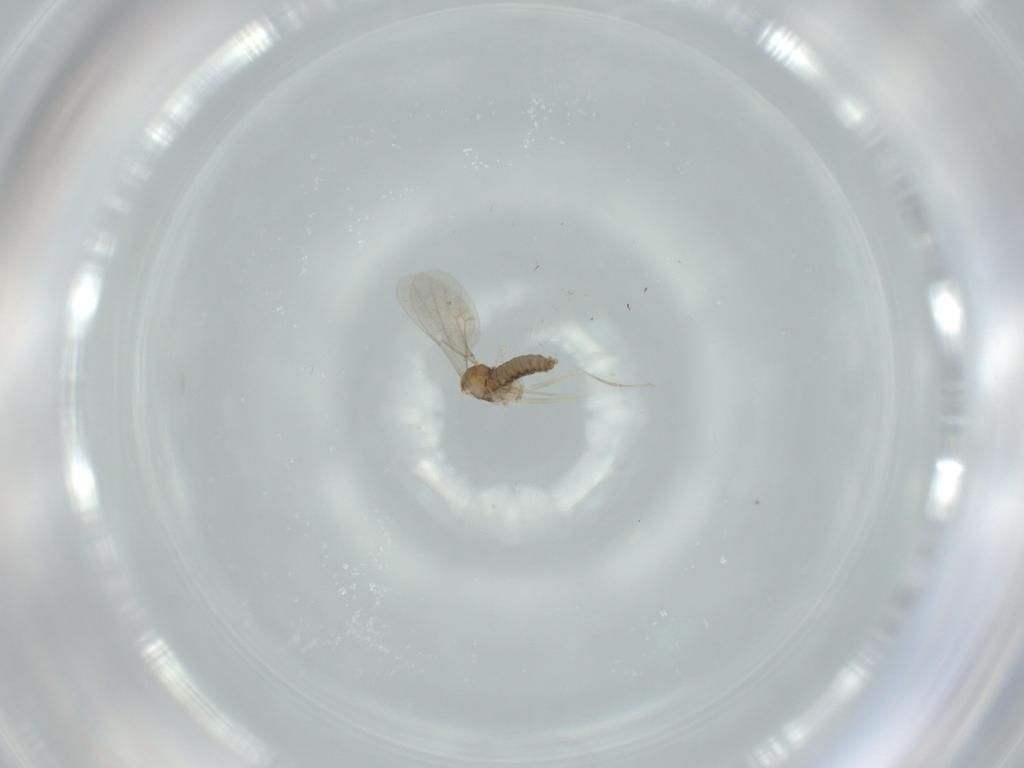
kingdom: Animalia
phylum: Arthropoda
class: Insecta
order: Diptera
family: Cecidomyiidae
